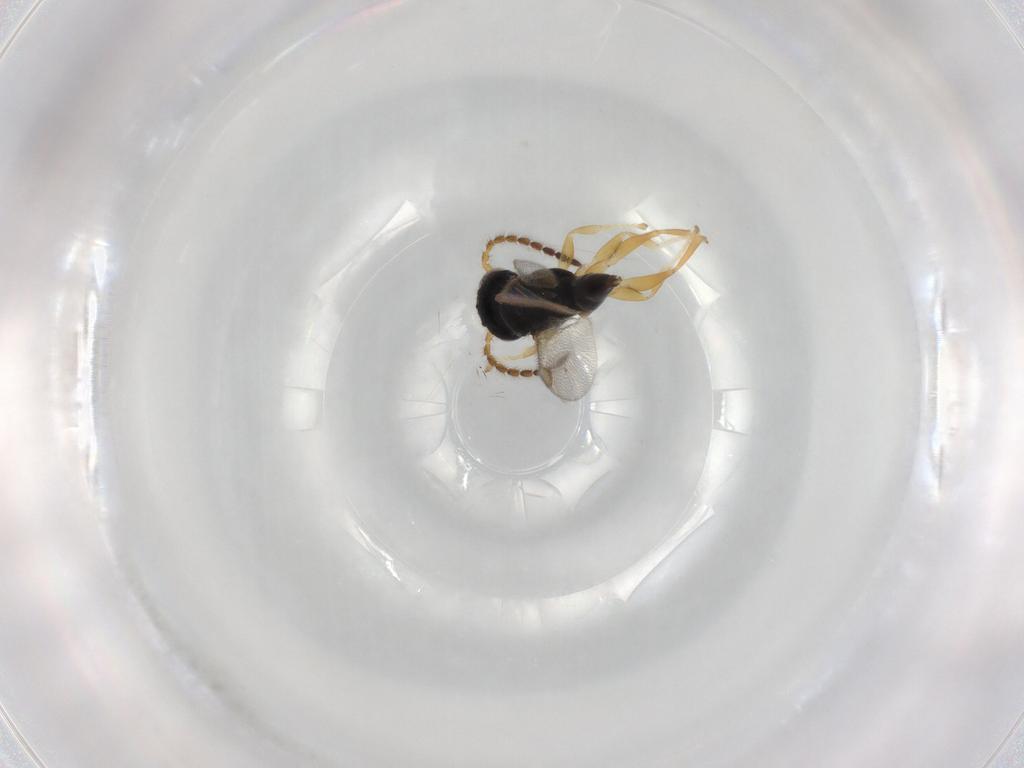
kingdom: Animalia
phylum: Arthropoda
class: Insecta
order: Hymenoptera
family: Dryinidae
